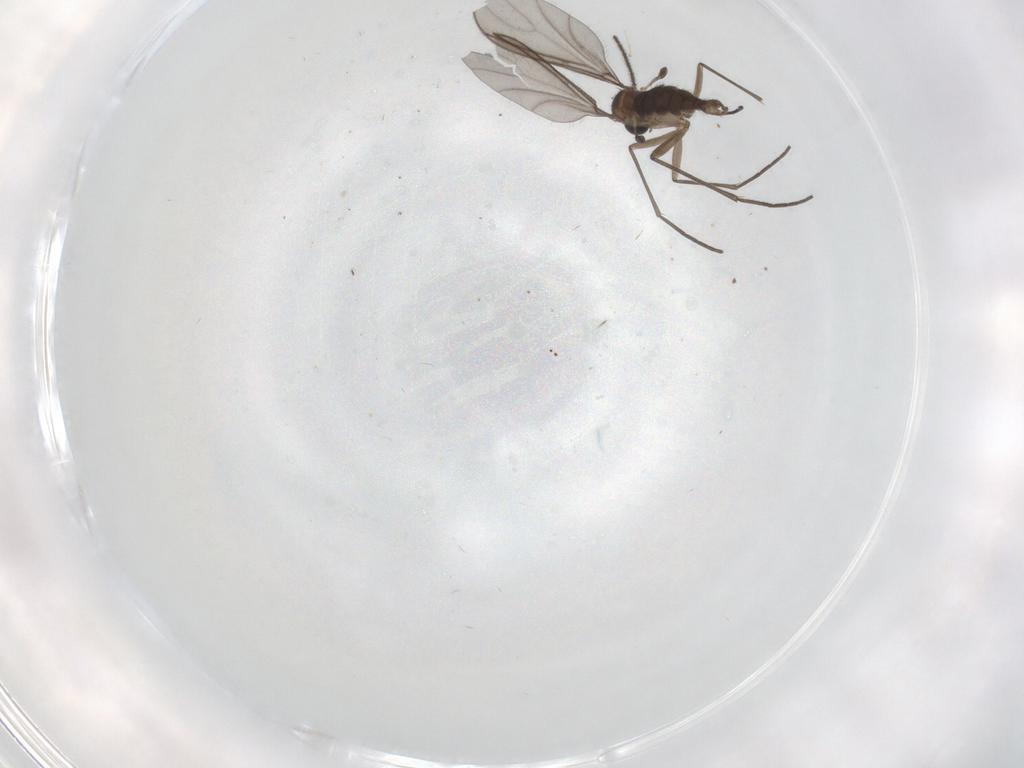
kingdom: Animalia
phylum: Arthropoda
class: Insecta
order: Diptera
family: Sciaridae
